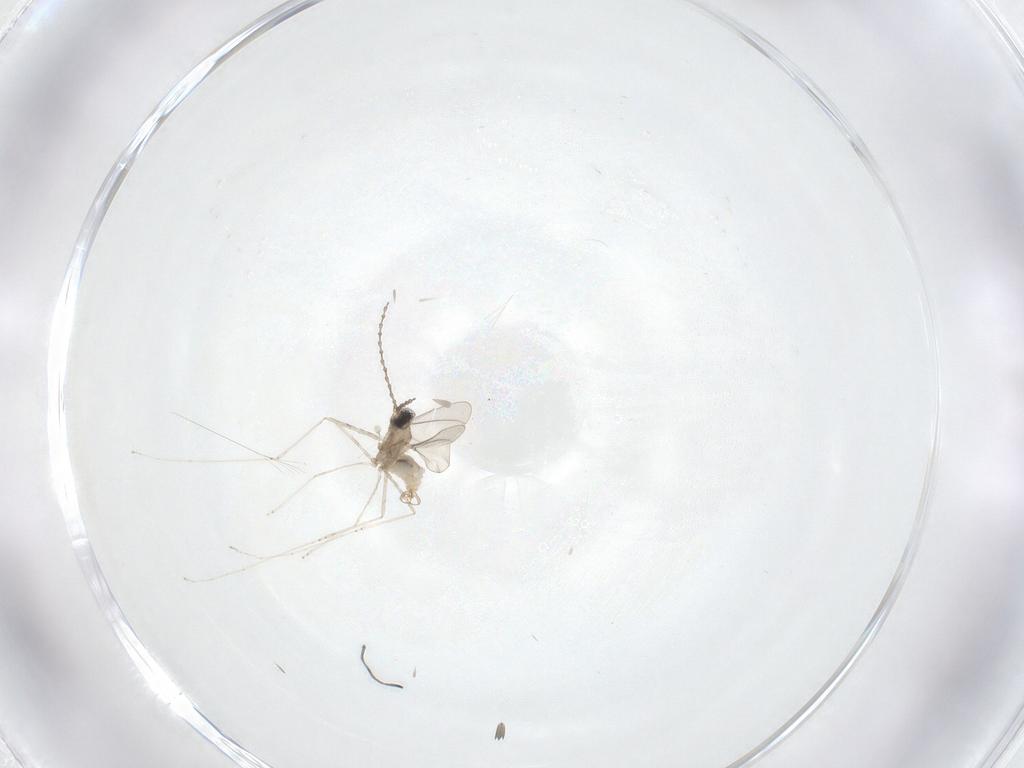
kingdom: Animalia
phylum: Arthropoda
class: Insecta
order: Diptera
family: Cecidomyiidae
